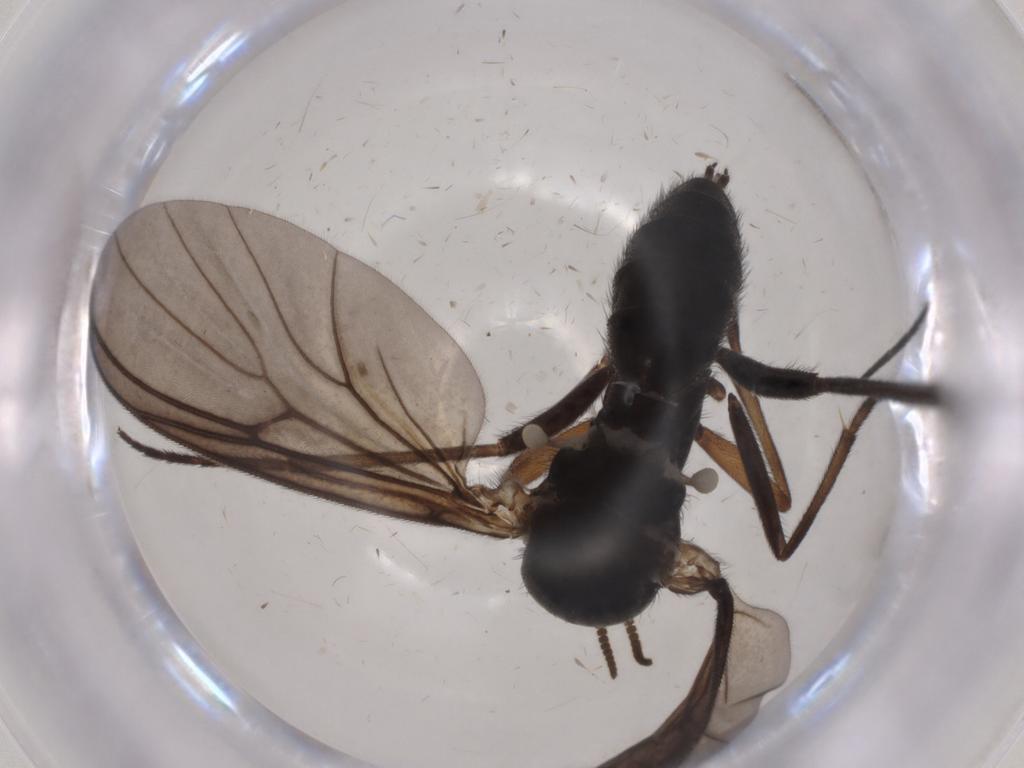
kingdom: Animalia
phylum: Arthropoda
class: Insecta
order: Diptera
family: Mycetophilidae
